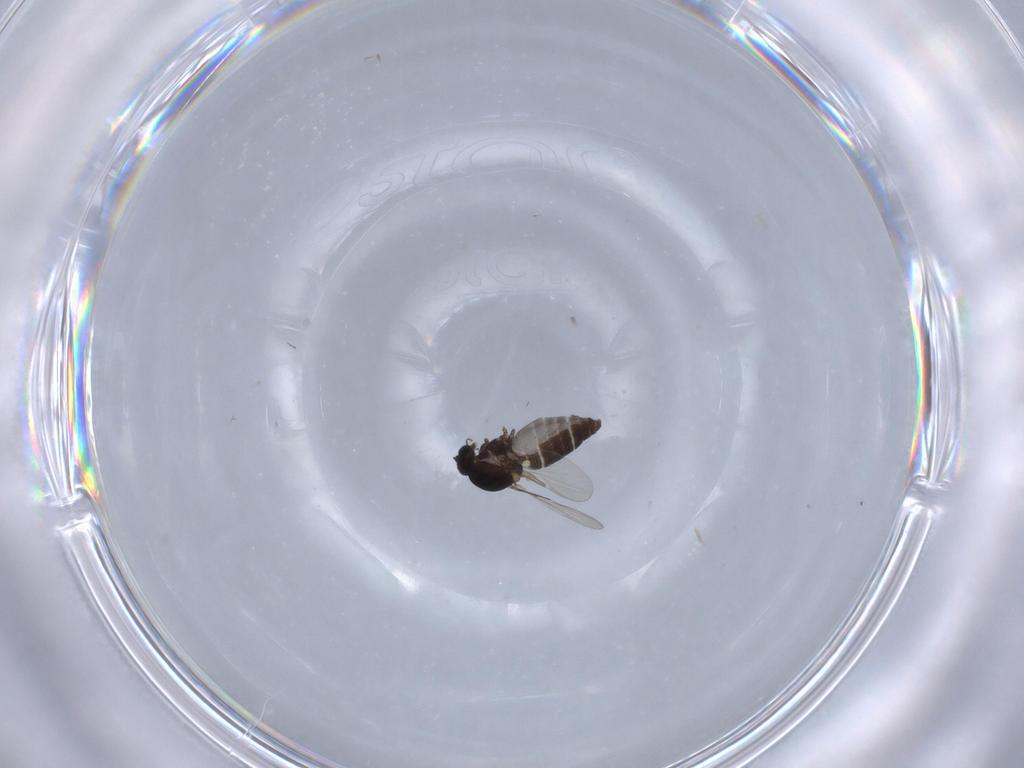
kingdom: Animalia
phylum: Arthropoda
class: Insecta
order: Diptera
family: Ceratopogonidae
